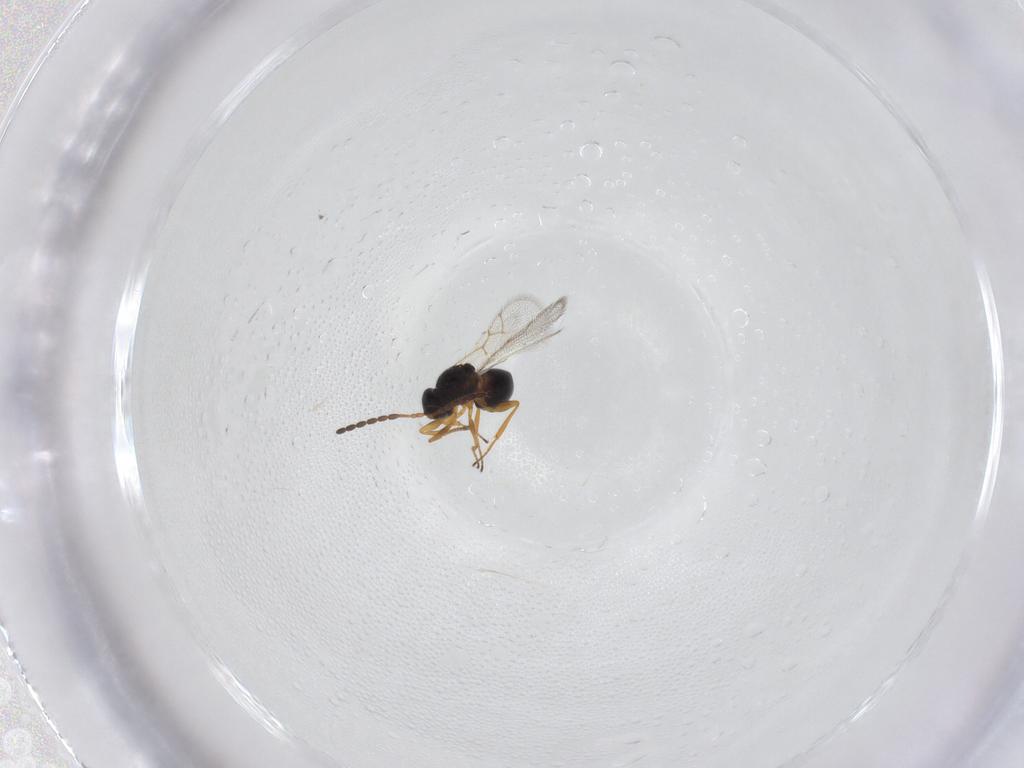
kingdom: Animalia
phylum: Arthropoda
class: Insecta
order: Hymenoptera
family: Figitidae
